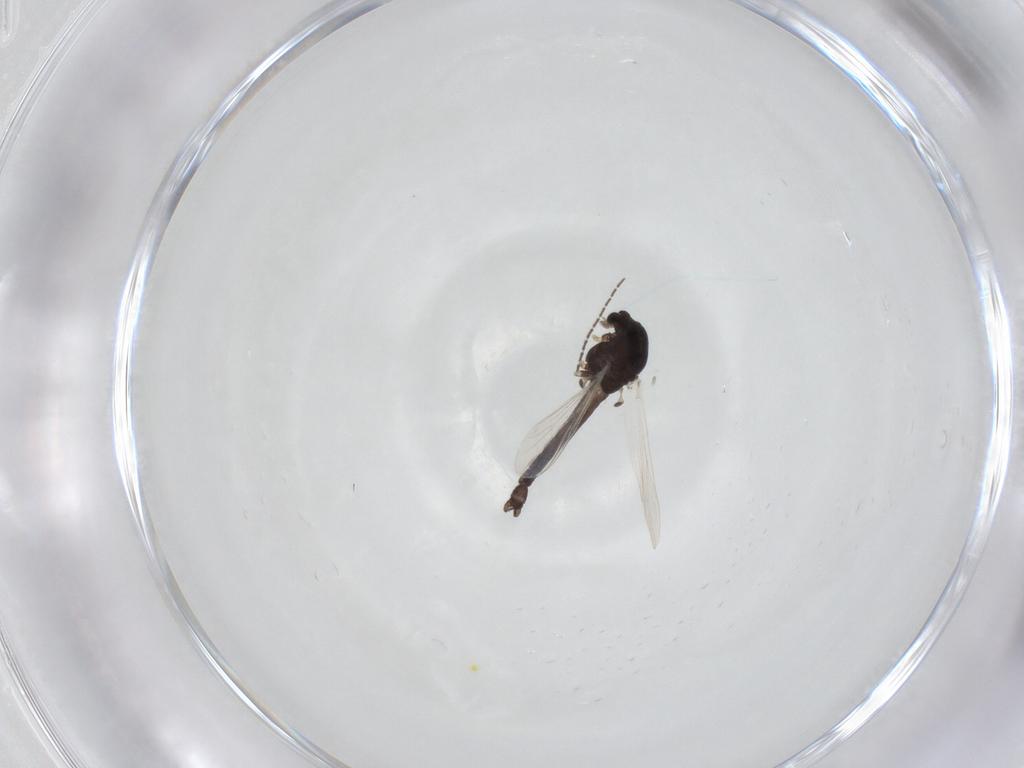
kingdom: Animalia
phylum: Arthropoda
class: Insecta
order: Diptera
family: Chironomidae
